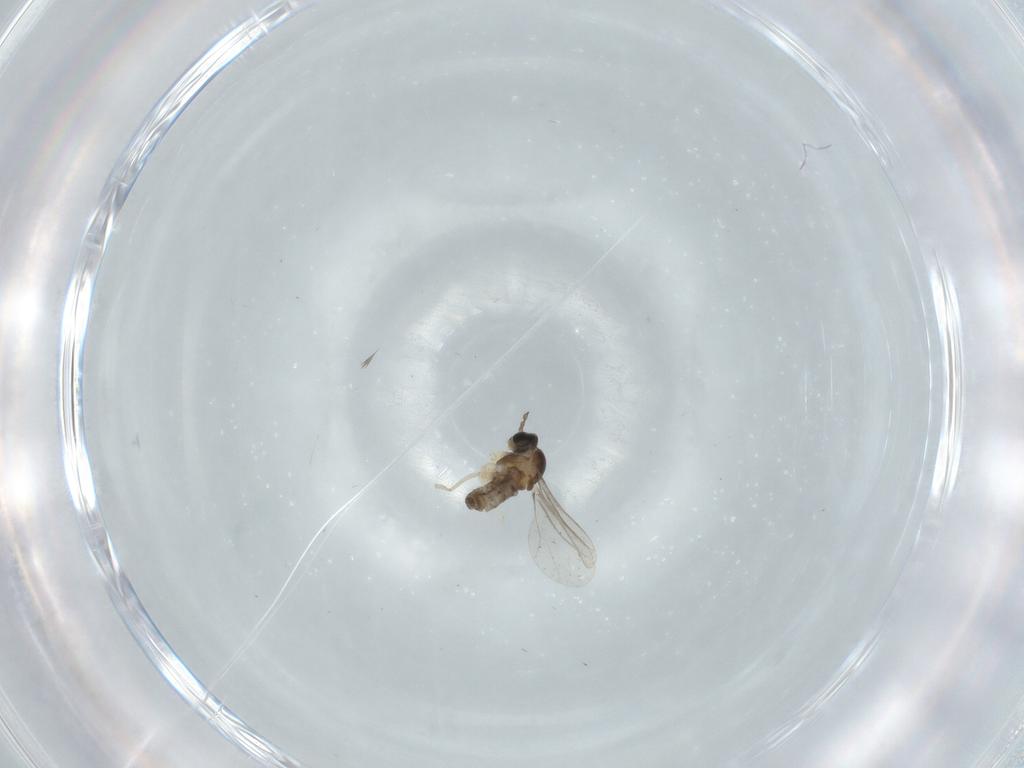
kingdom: Animalia
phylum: Arthropoda
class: Insecta
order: Diptera
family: Cecidomyiidae
